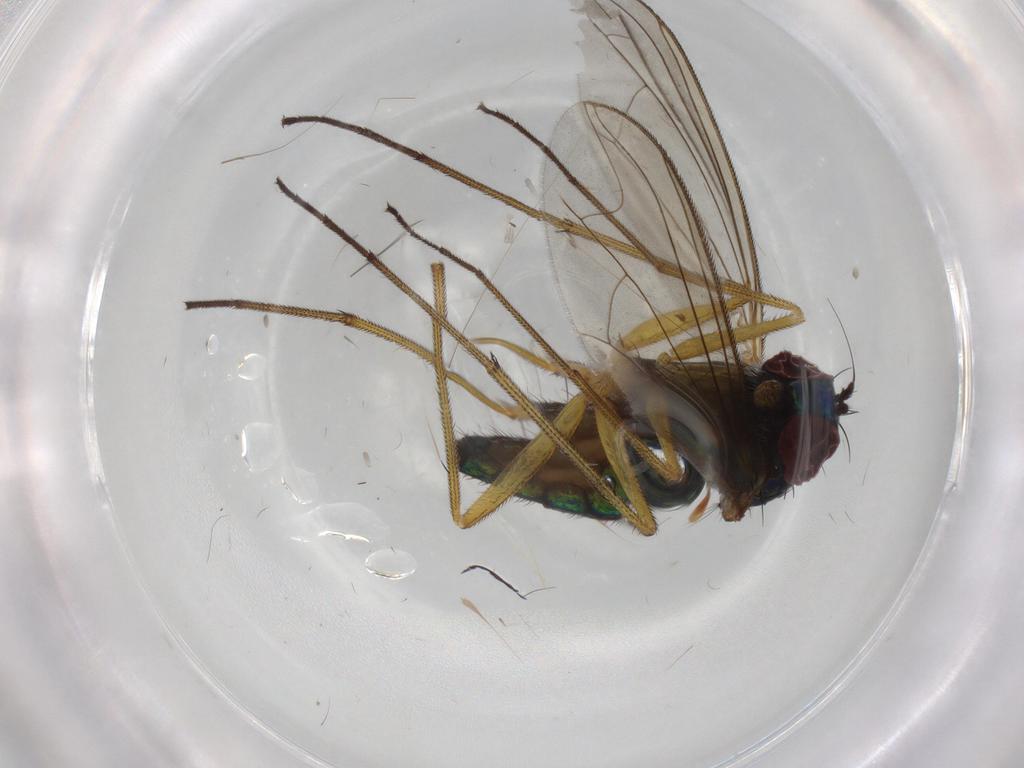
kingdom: Animalia
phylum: Arthropoda
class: Insecta
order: Diptera
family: Dolichopodidae
